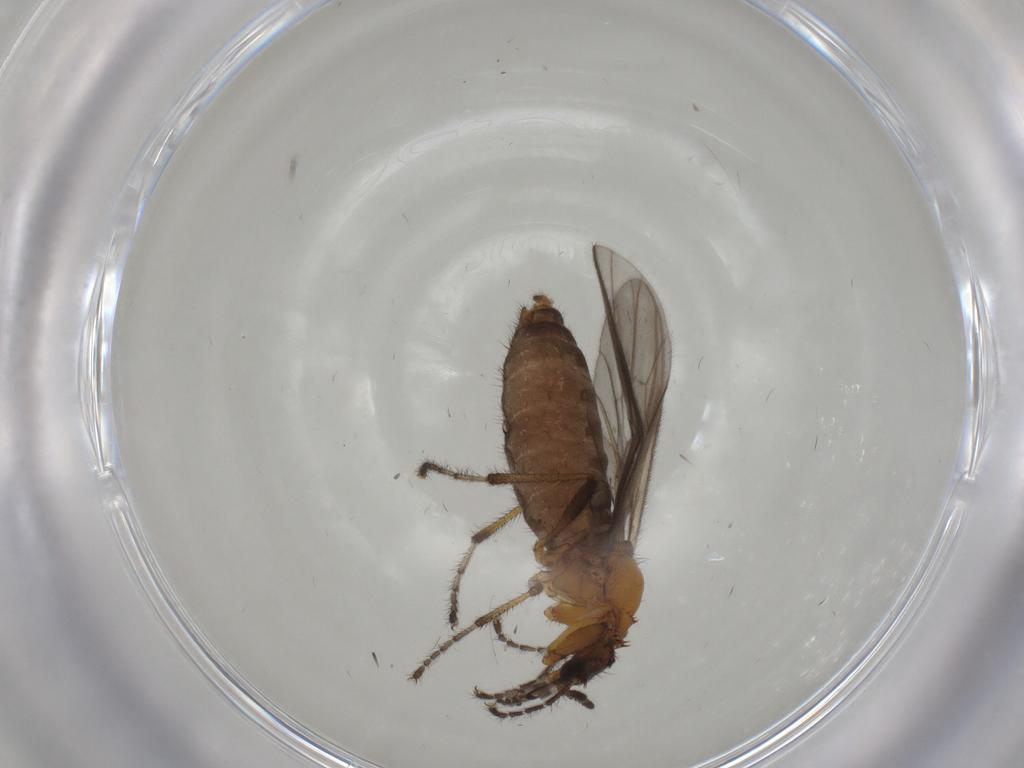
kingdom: Animalia
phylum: Arthropoda
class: Insecta
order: Diptera
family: Bibionidae
